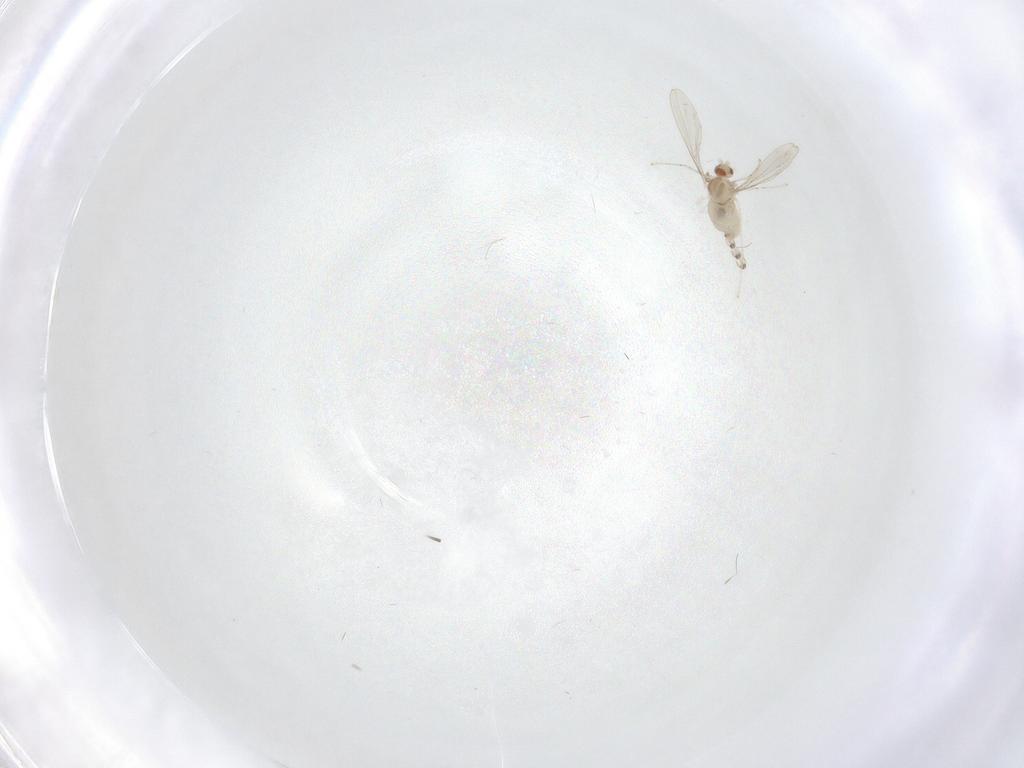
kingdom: Animalia
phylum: Arthropoda
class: Insecta
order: Diptera
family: Cecidomyiidae
